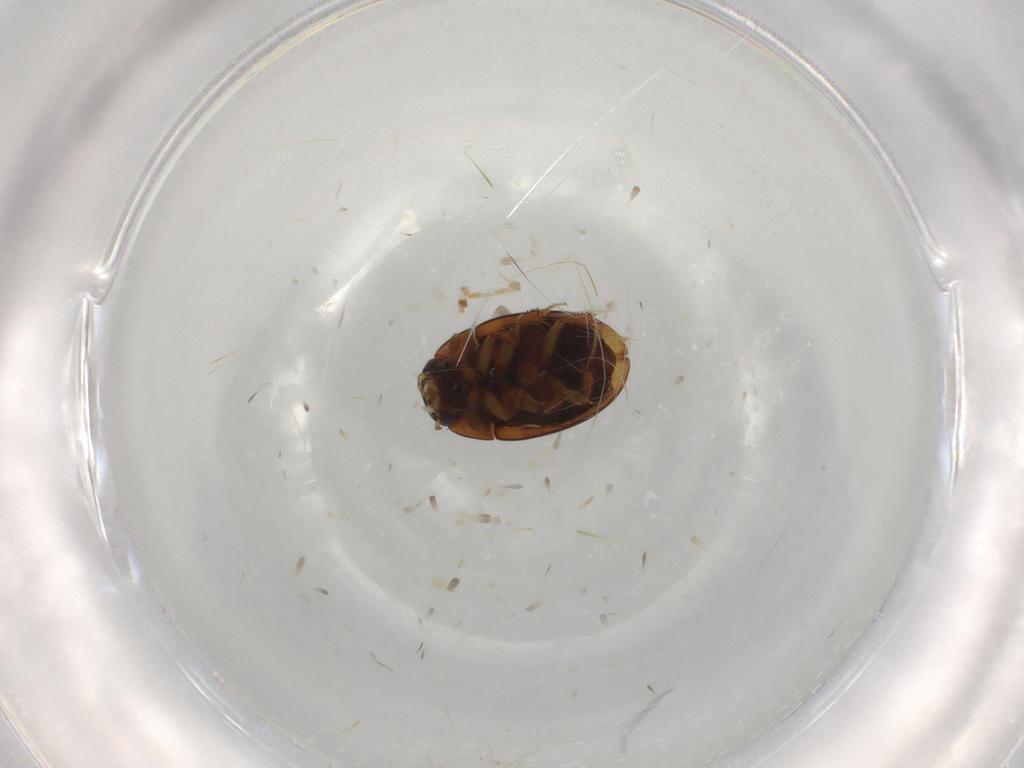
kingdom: Animalia
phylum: Arthropoda
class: Insecta
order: Coleoptera
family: Hydrophilidae
